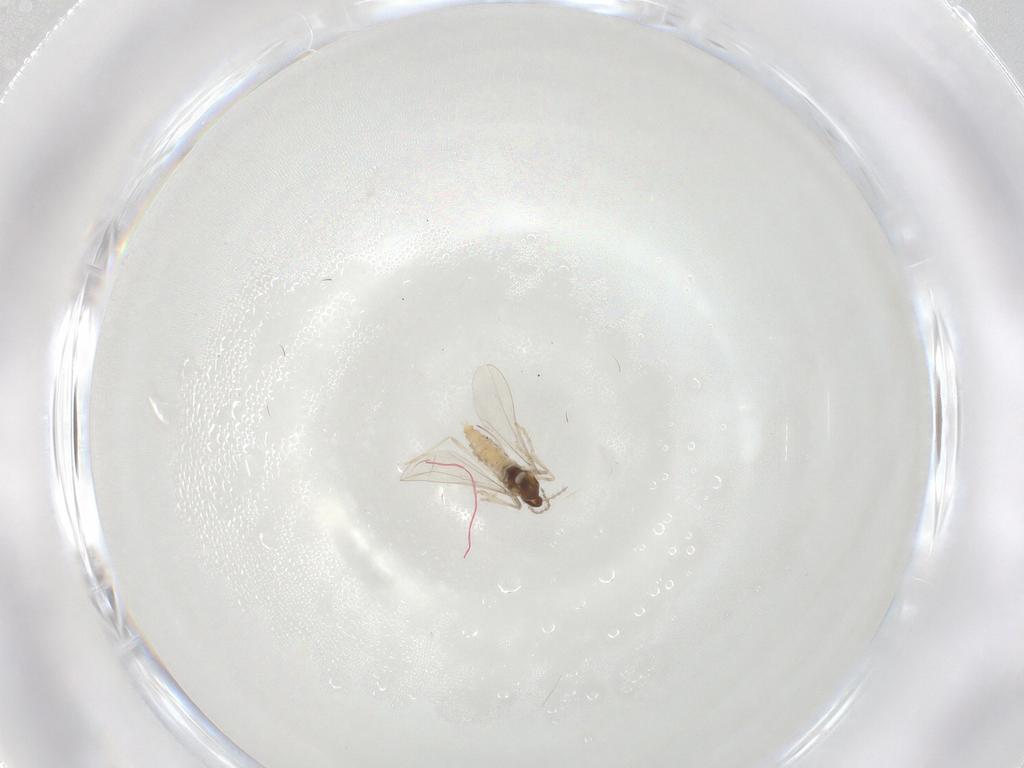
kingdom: Animalia
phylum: Arthropoda
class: Insecta
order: Diptera
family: Cecidomyiidae
